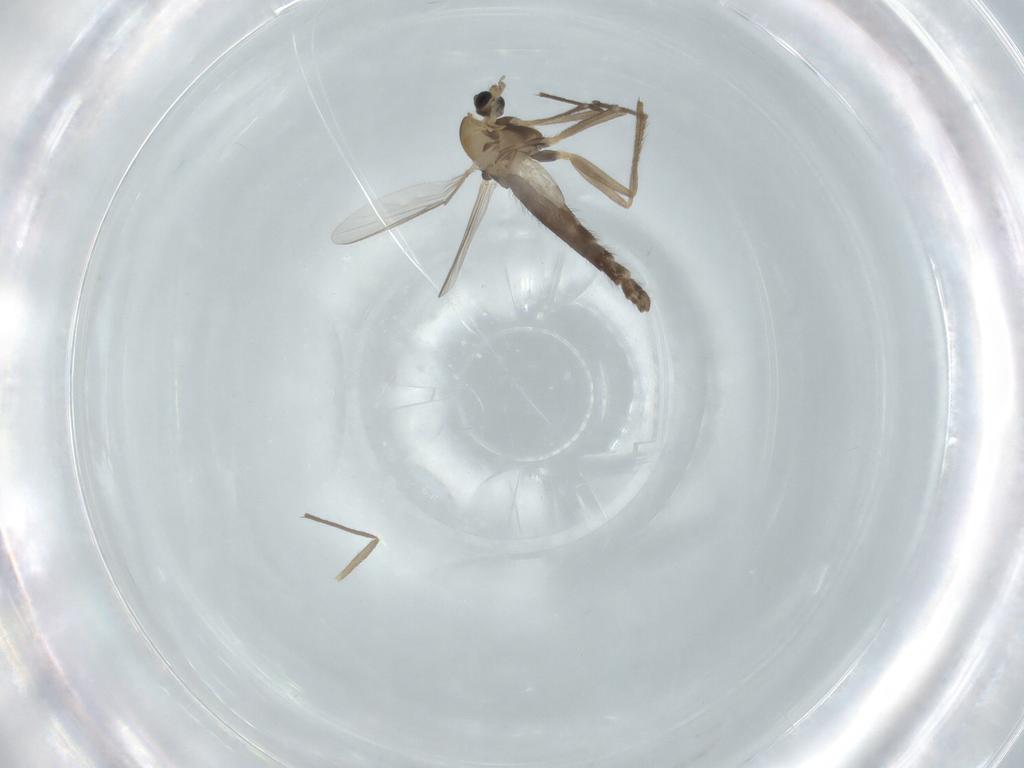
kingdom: Animalia
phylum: Arthropoda
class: Insecta
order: Diptera
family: Chironomidae
